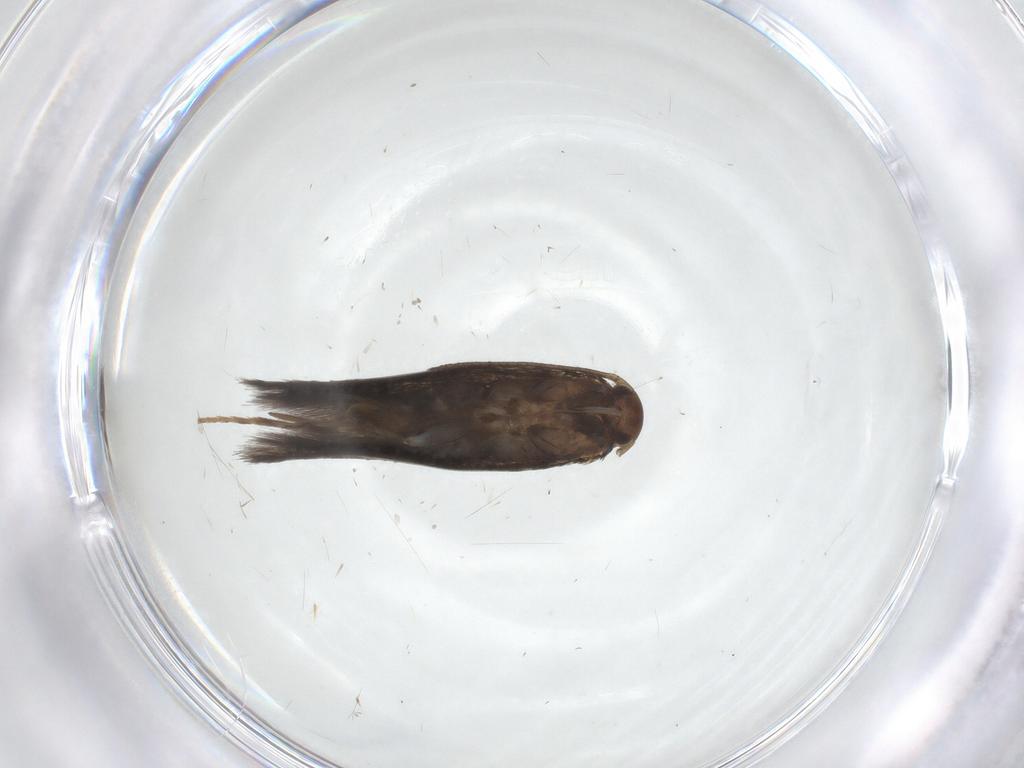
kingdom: Animalia
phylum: Arthropoda
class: Insecta
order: Lepidoptera
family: Elachistidae
